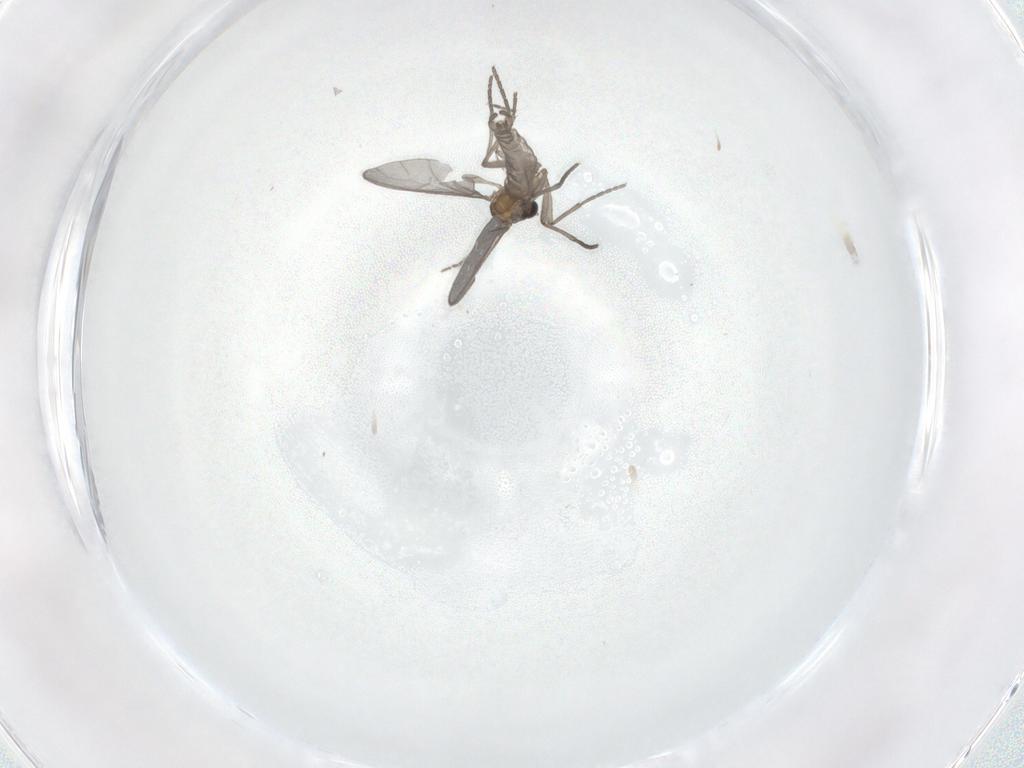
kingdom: Animalia
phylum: Arthropoda
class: Insecta
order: Diptera
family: Sciaridae
